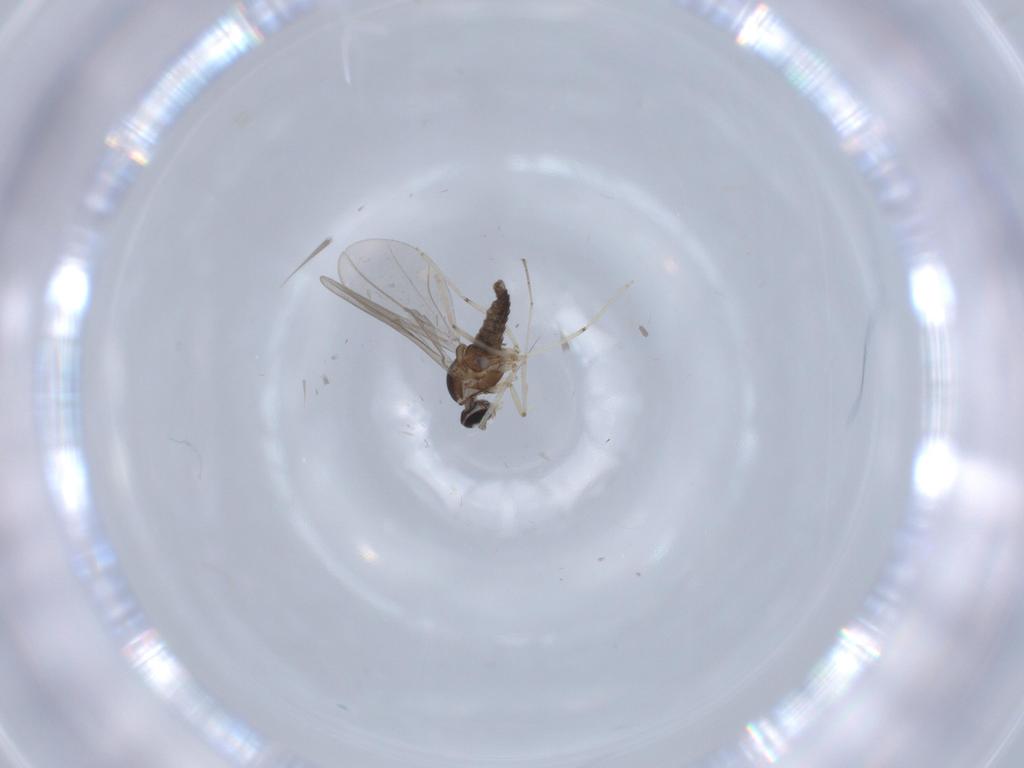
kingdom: Animalia
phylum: Arthropoda
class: Insecta
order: Diptera
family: Cecidomyiidae
